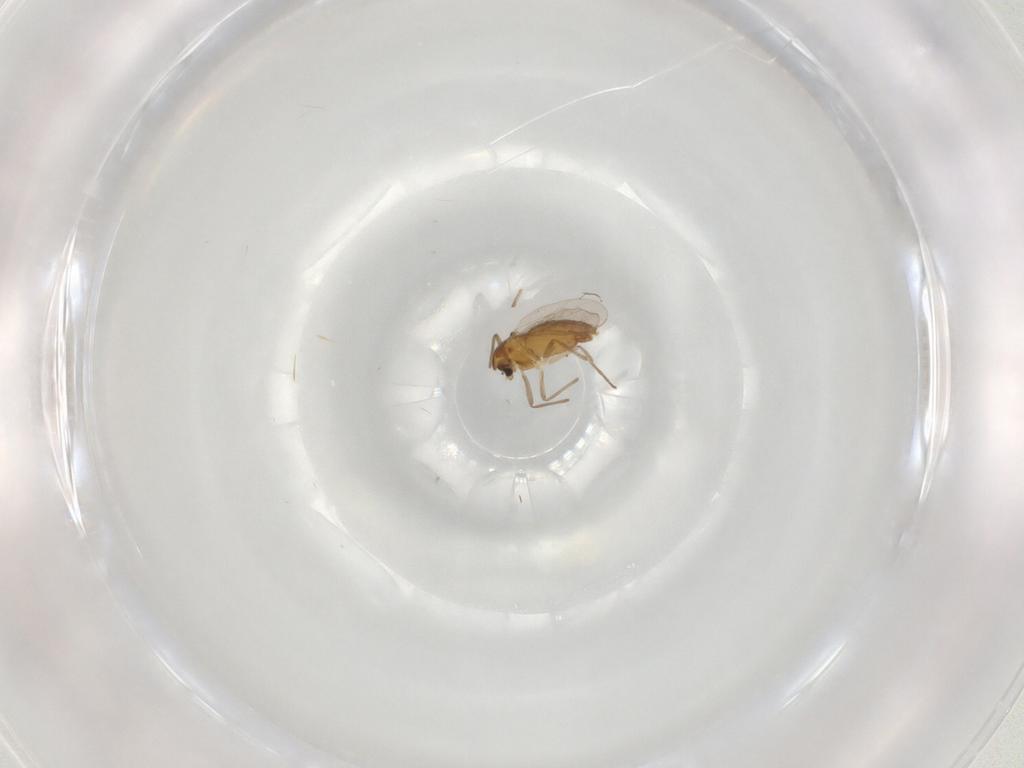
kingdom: Animalia
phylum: Arthropoda
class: Insecta
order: Diptera
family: Chironomidae
